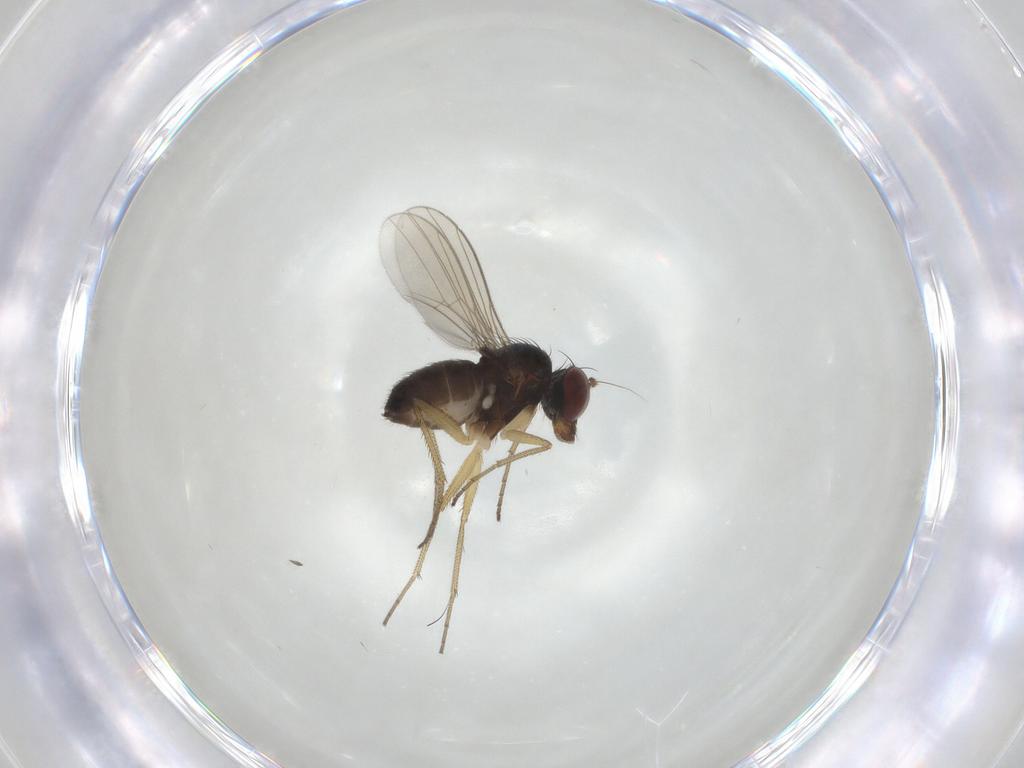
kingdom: Animalia
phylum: Arthropoda
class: Insecta
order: Diptera
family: Dolichopodidae
